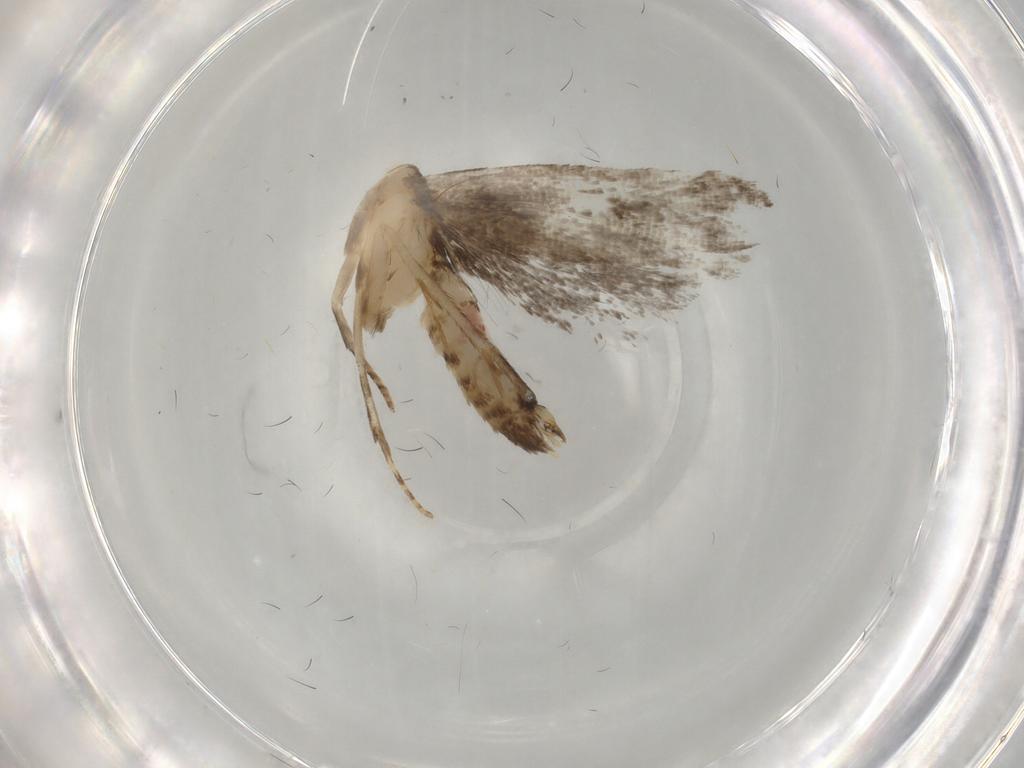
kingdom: Animalia
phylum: Arthropoda
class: Insecta
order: Lepidoptera
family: Gelechiidae
